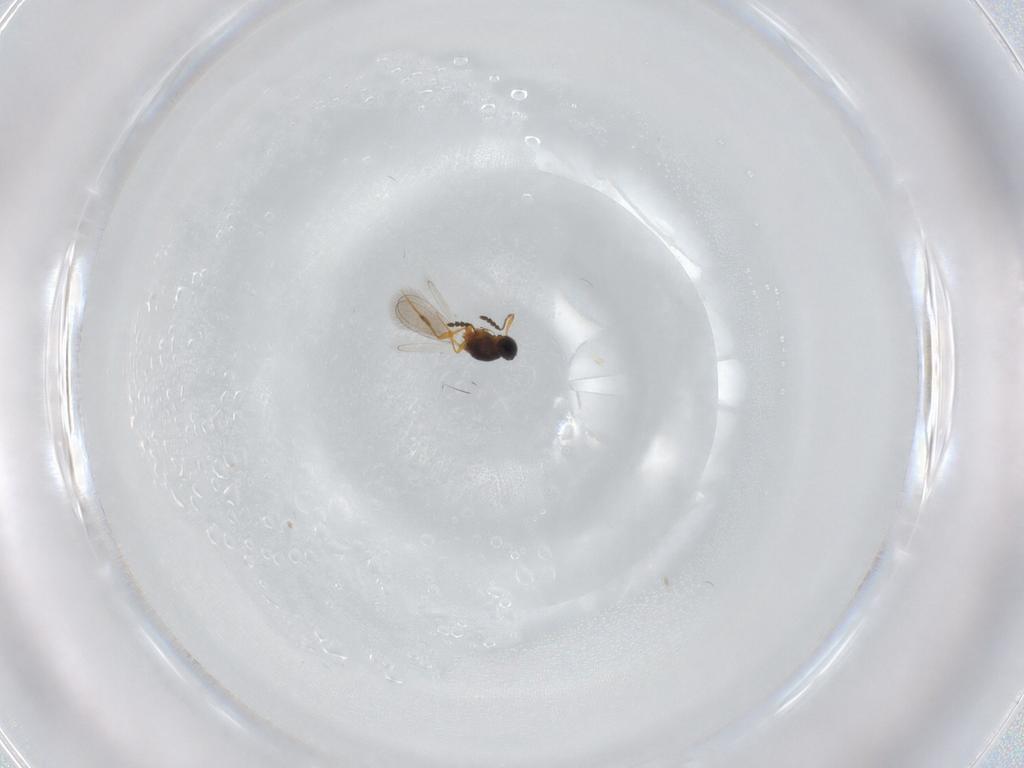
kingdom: Animalia
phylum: Arthropoda
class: Insecta
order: Hymenoptera
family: Platygastridae
